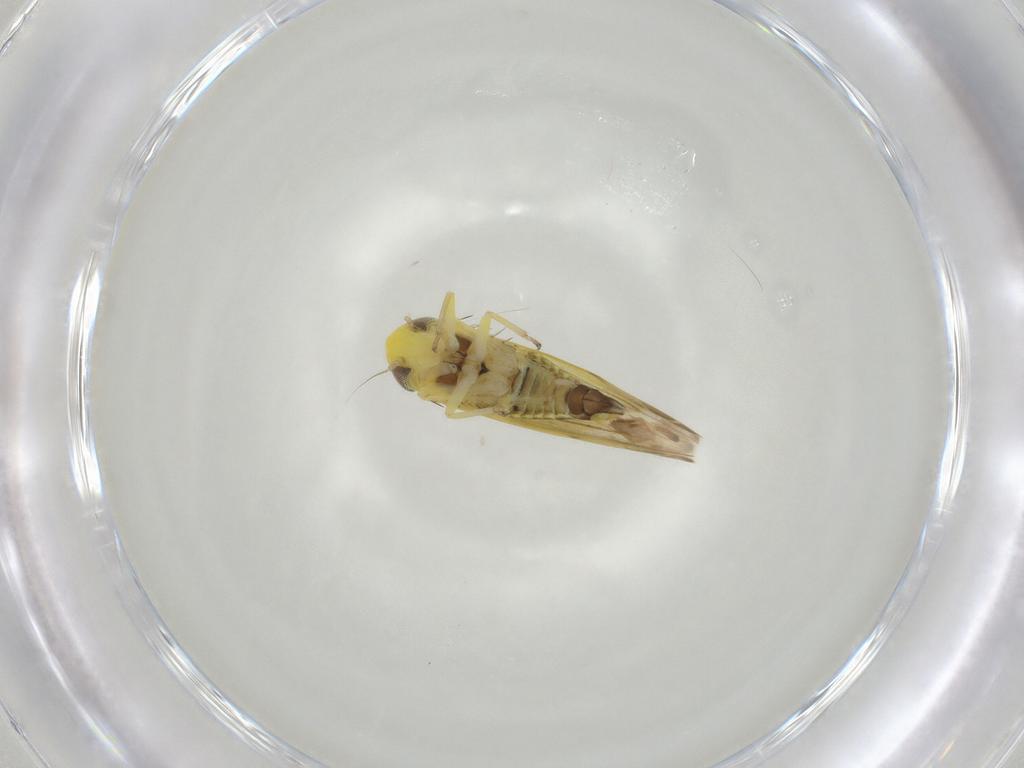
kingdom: Animalia
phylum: Arthropoda
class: Insecta
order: Hemiptera
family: Cicadellidae
